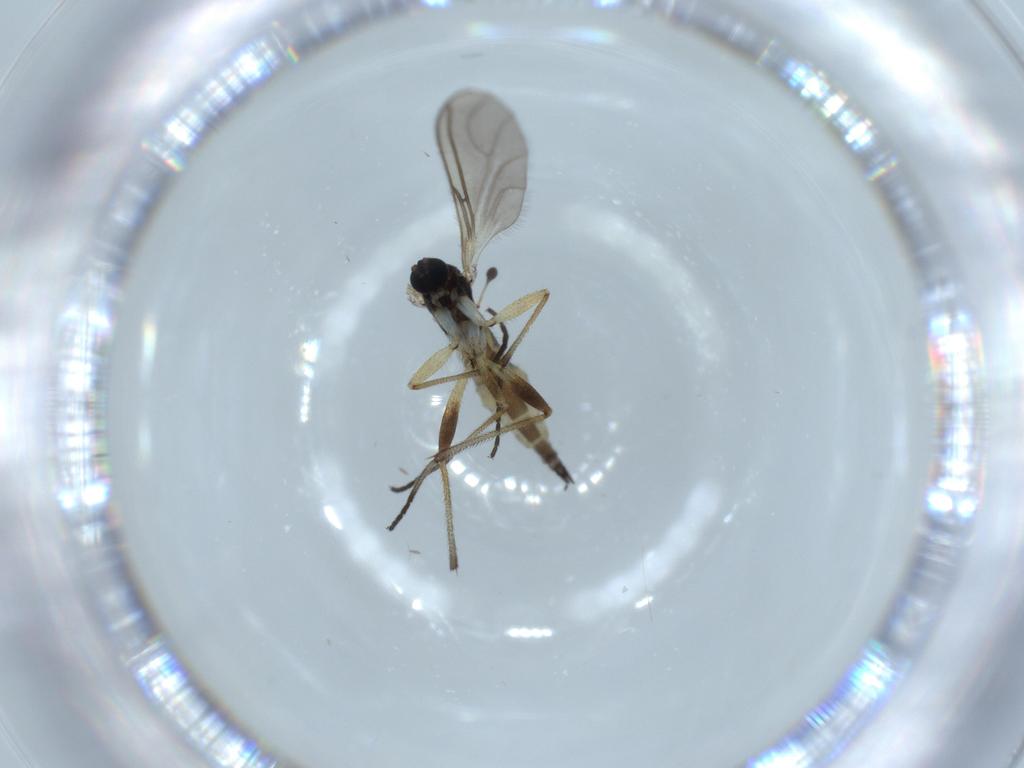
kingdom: Animalia
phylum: Arthropoda
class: Insecta
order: Diptera
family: Sciaridae
